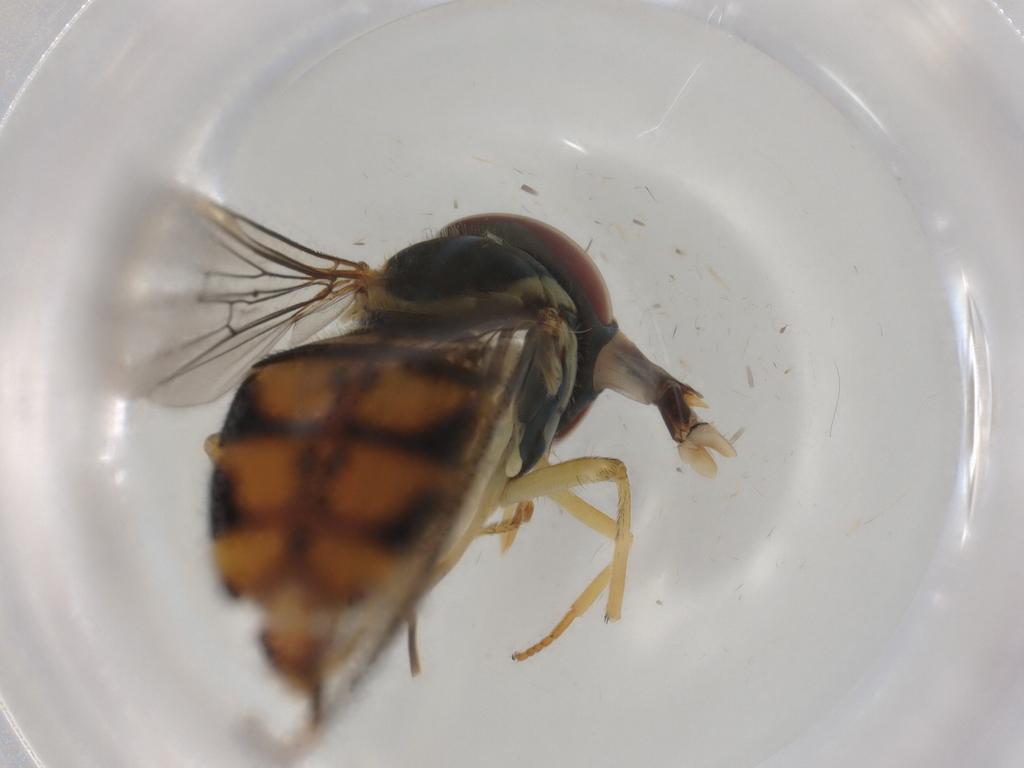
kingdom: Animalia
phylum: Arthropoda
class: Insecta
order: Diptera
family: Syrphidae
